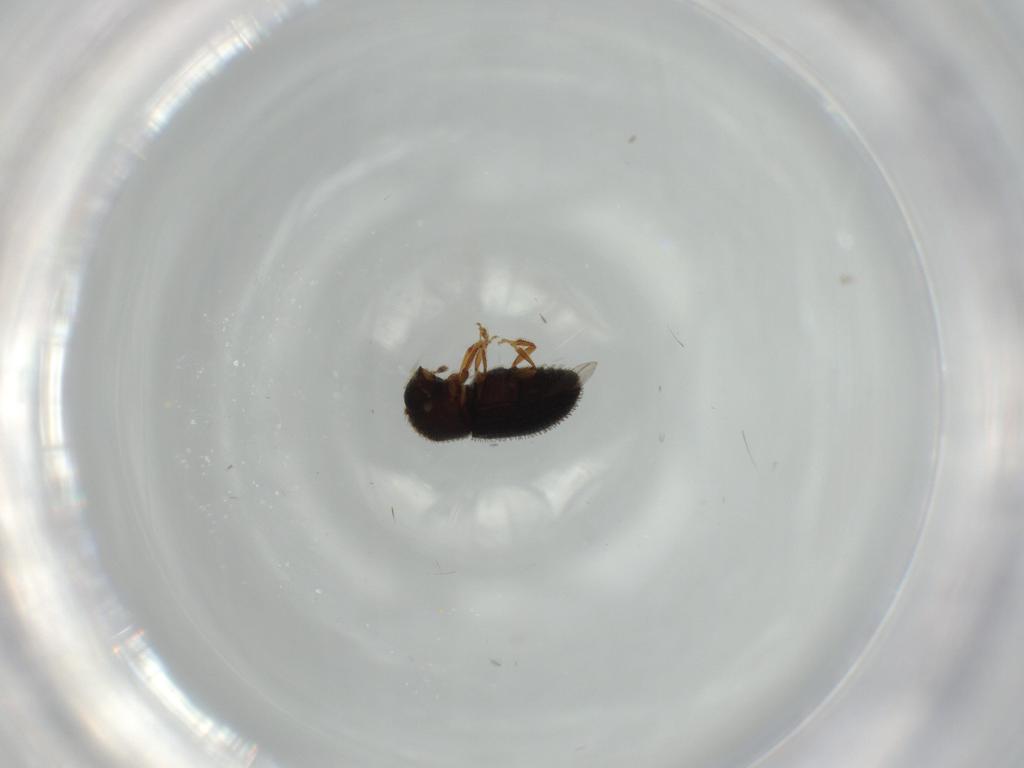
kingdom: Animalia
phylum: Arthropoda
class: Insecta
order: Coleoptera
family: Curculionidae
